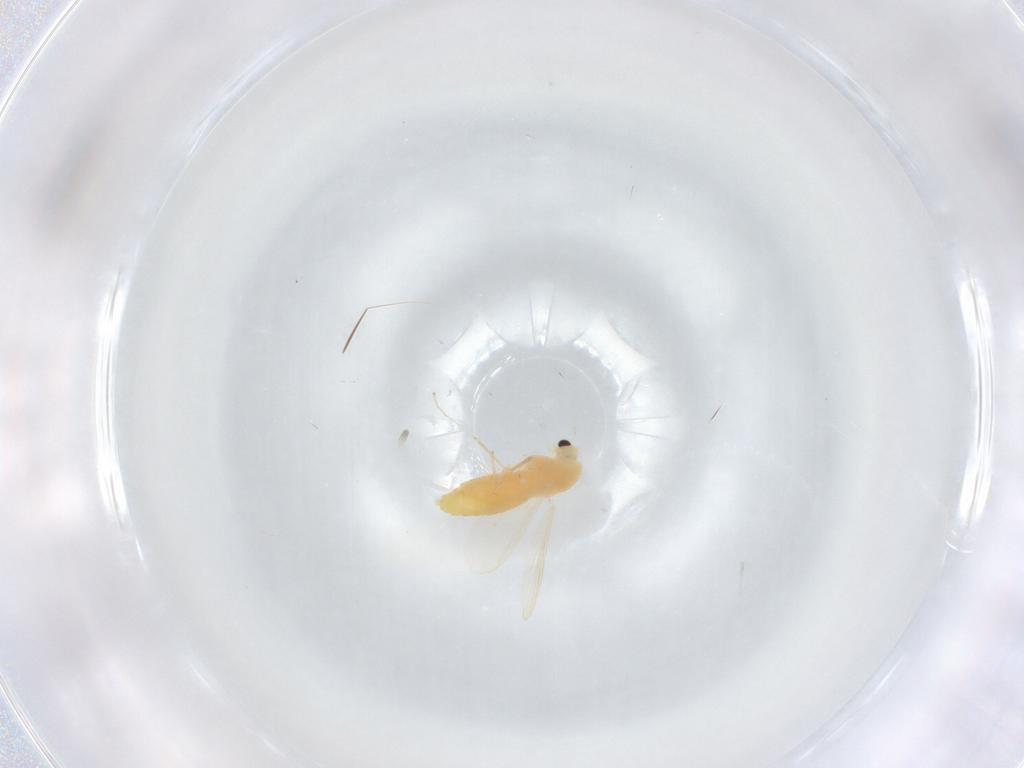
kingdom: Animalia
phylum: Arthropoda
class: Insecta
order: Diptera
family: Chironomidae
